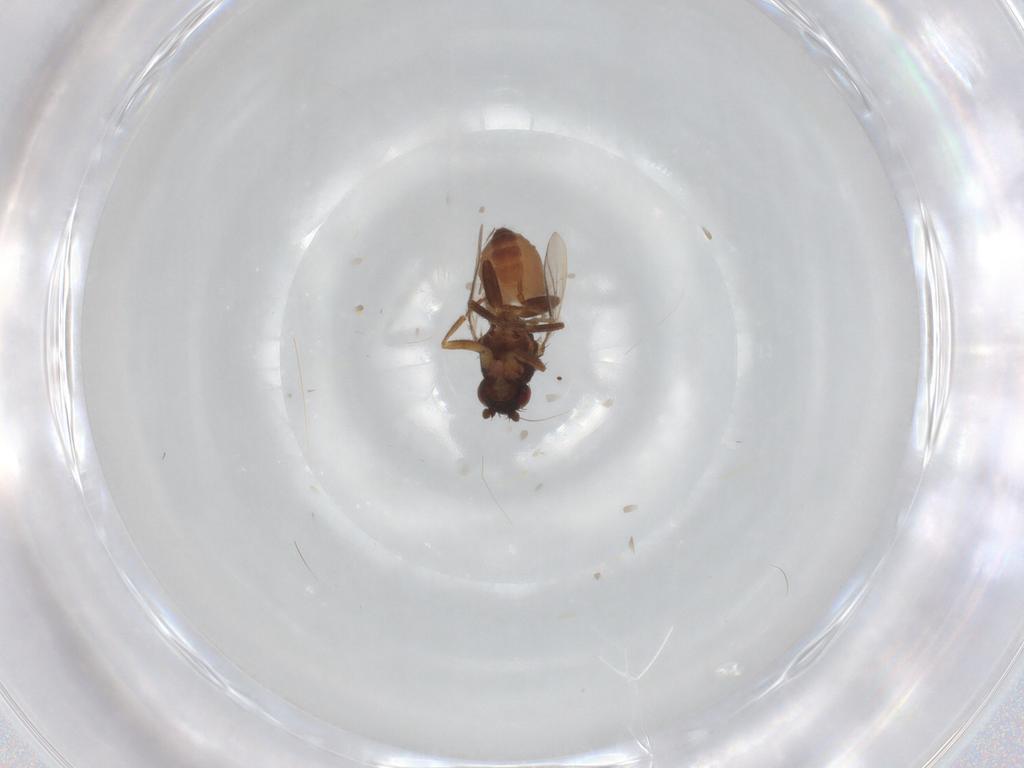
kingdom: Animalia
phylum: Arthropoda
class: Insecta
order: Diptera
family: Sphaeroceridae
